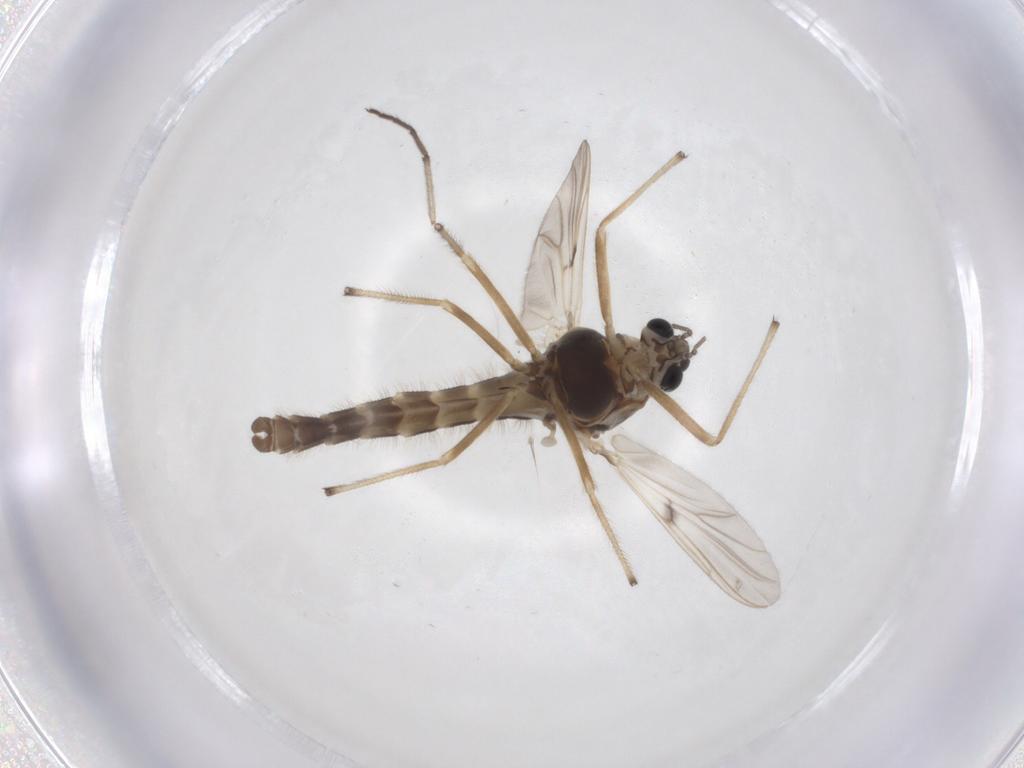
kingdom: Animalia
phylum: Arthropoda
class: Insecta
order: Diptera
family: Chironomidae
